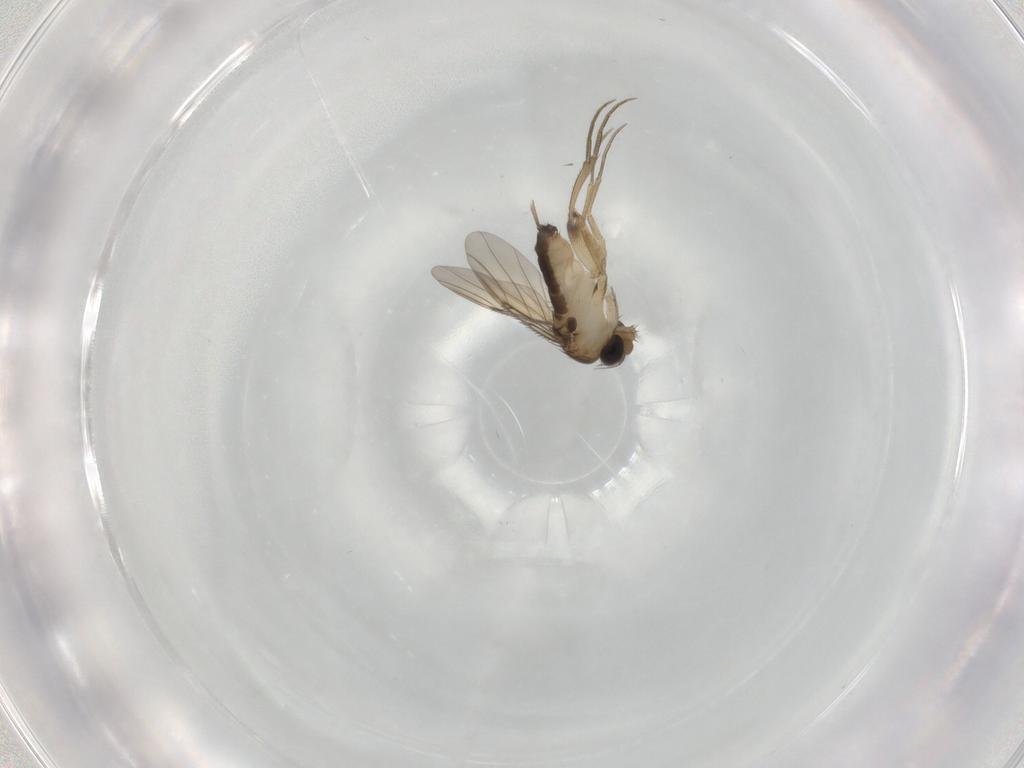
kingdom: Animalia
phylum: Arthropoda
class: Insecta
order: Diptera
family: Phoridae
